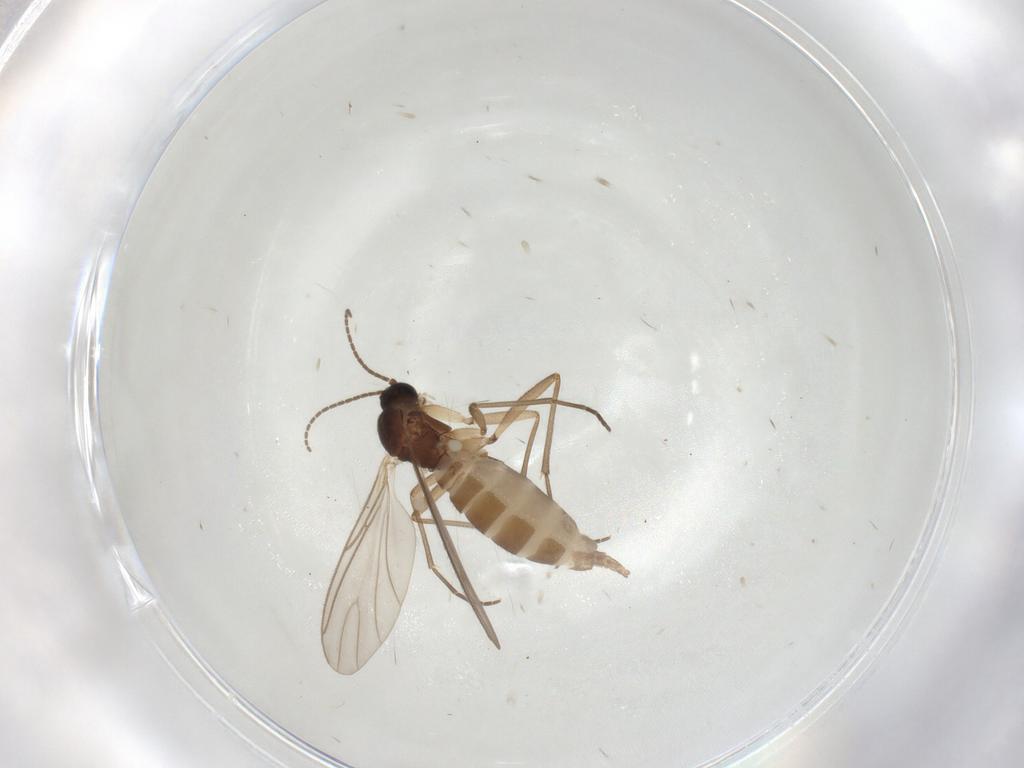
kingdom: Animalia
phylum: Arthropoda
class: Insecta
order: Diptera
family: Sciaridae
